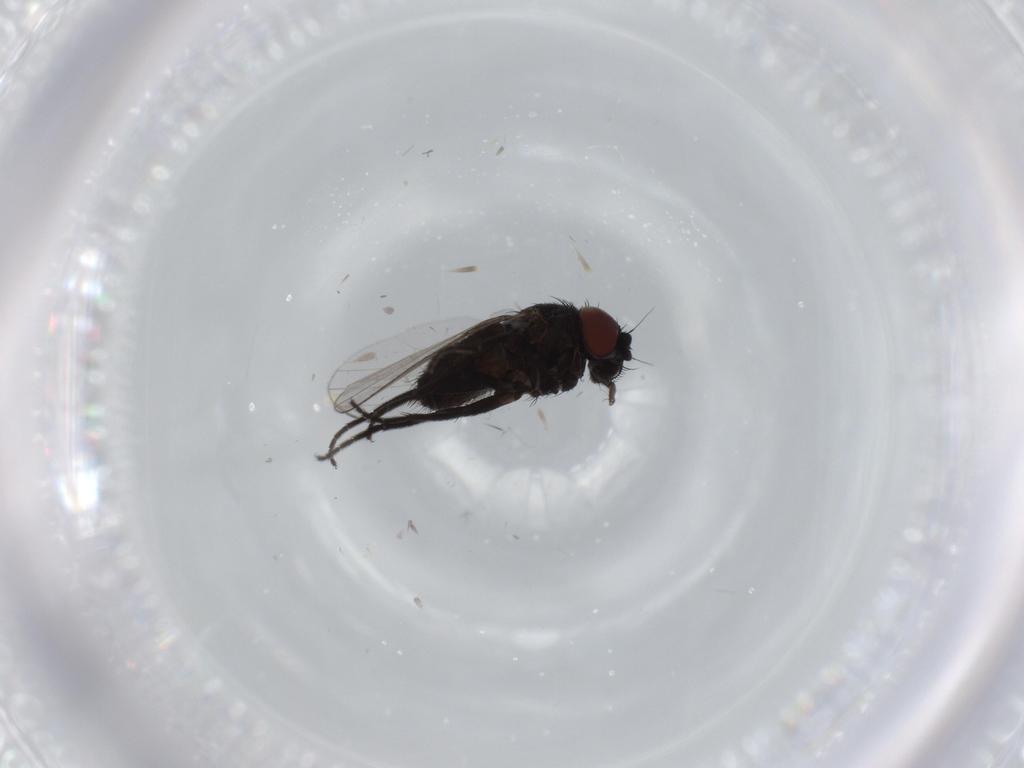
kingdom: Animalia
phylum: Arthropoda
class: Insecta
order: Diptera
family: Milichiidae
